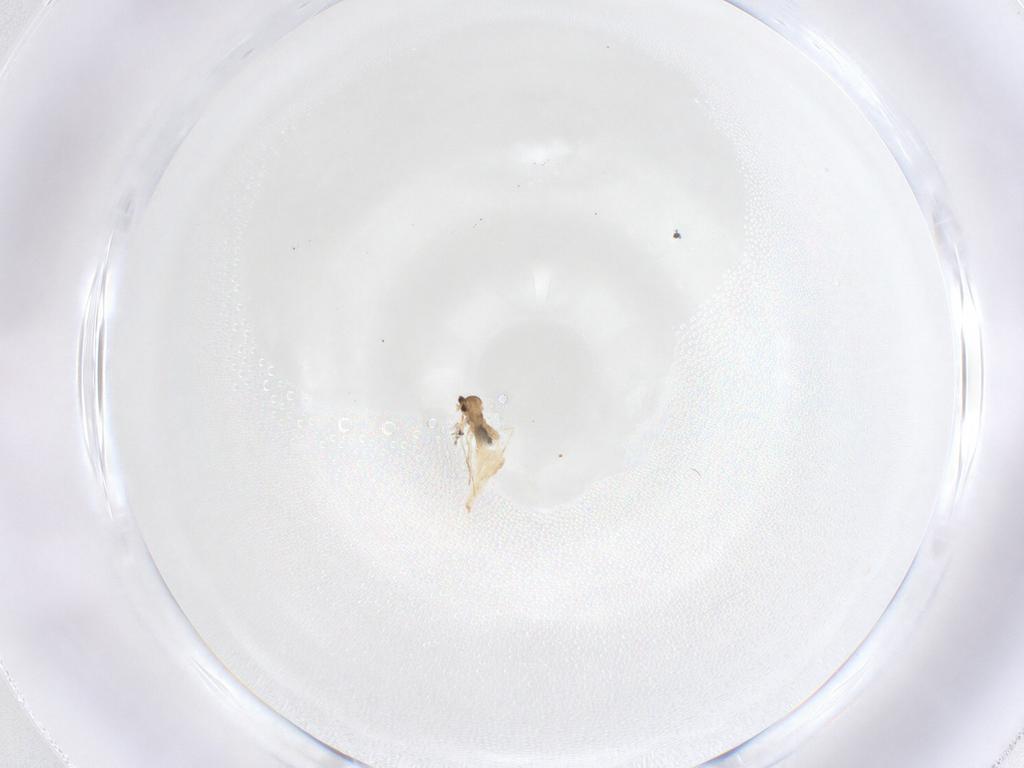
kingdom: Animalia
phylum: Arthropoda
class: Insecta
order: Diptera
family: Cecidomyiidae
